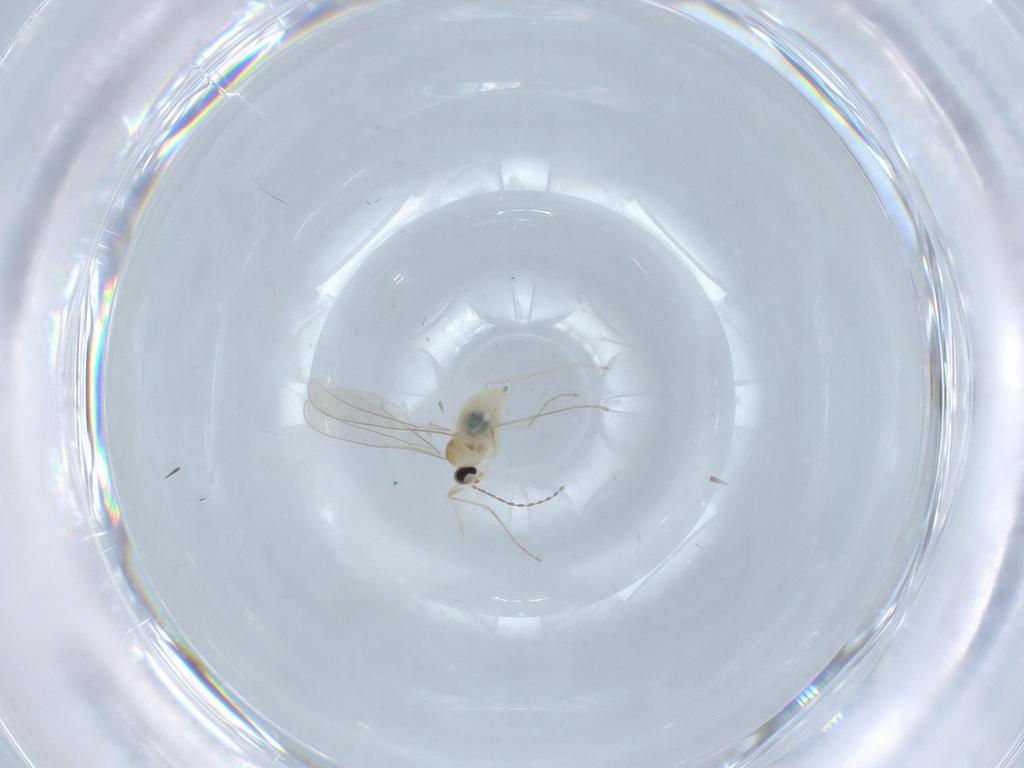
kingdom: Animalia
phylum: Arthropoda
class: Insecta
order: Diptera
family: Cecidomyiidae
